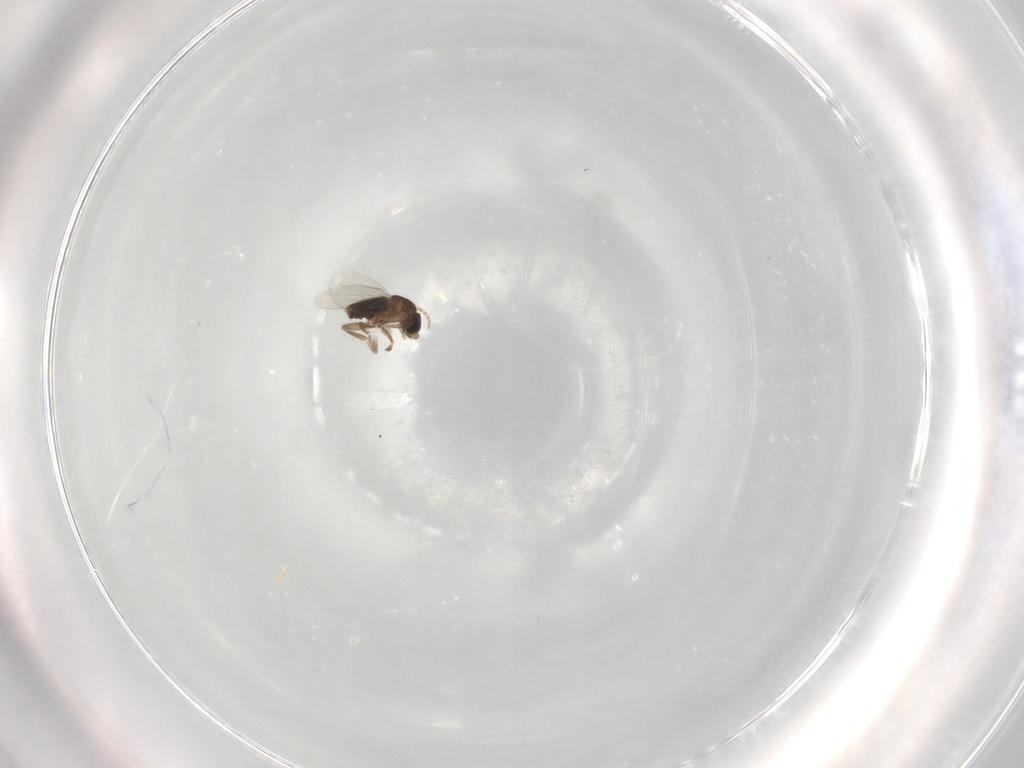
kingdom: Animalia
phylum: Arthropoda
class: Insecta
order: Diptera
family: Phoridae
